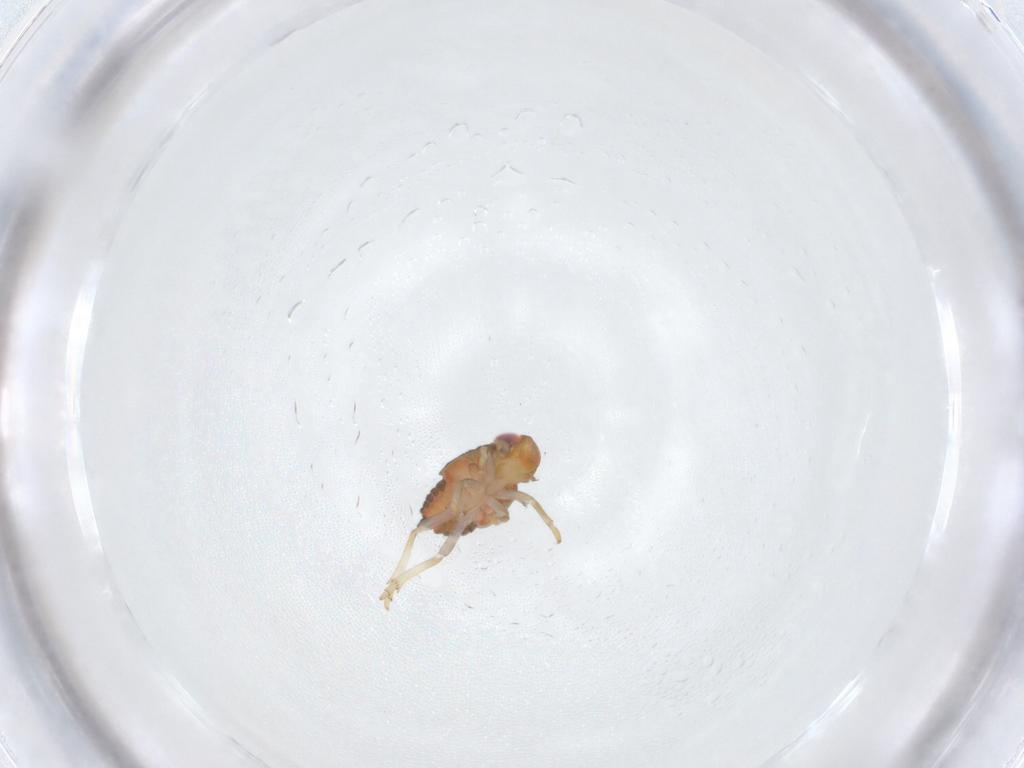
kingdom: Animalia
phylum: Arthropoda
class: Insecta
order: Hemiptera
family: Issidae
